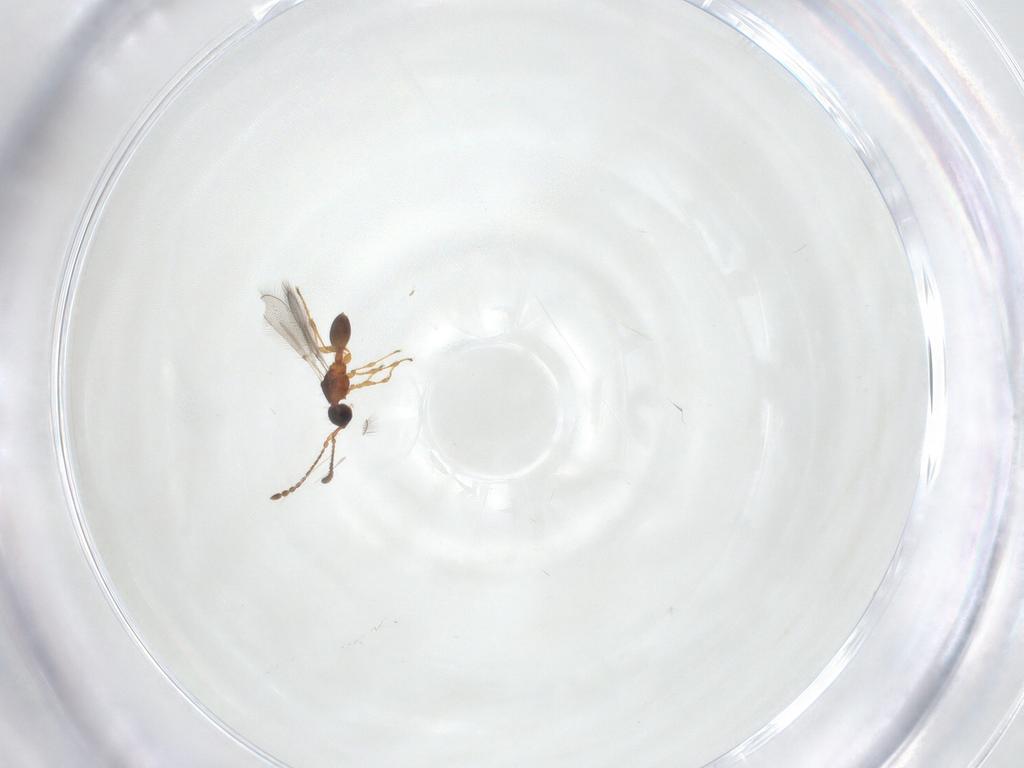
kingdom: Animalia
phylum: Arthropoda
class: Insecta
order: Hymenoptera
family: Diapriidae
